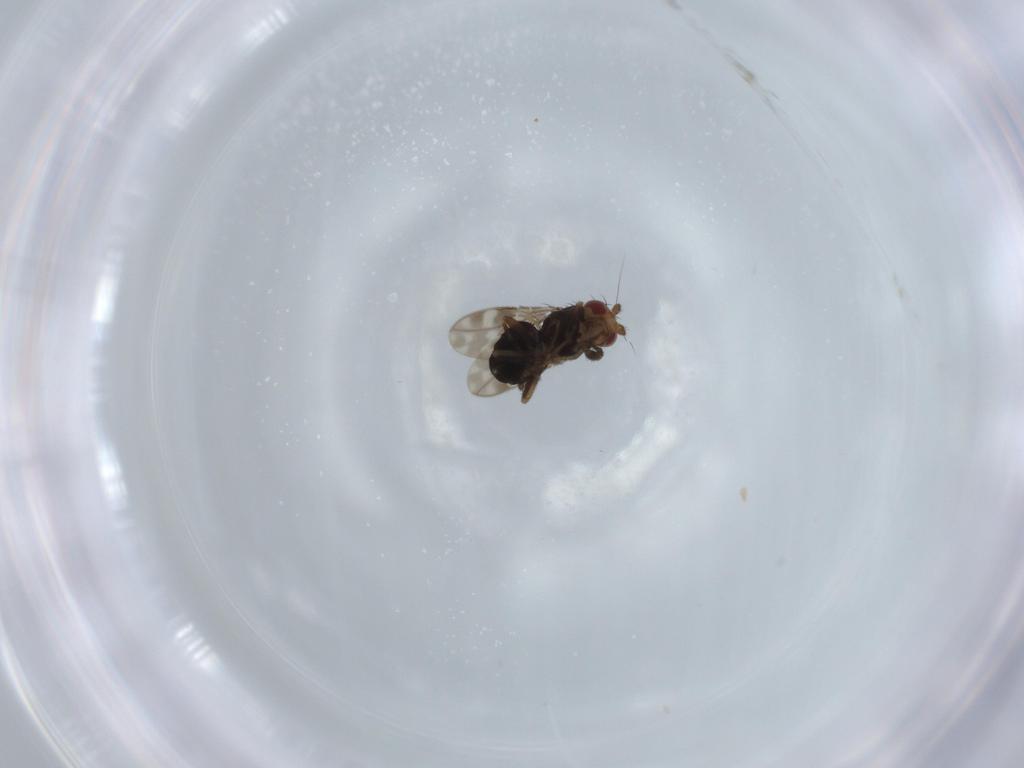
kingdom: Animalia
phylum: Arthropoda
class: Insecta
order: Diptera
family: Sphaeroceridae
